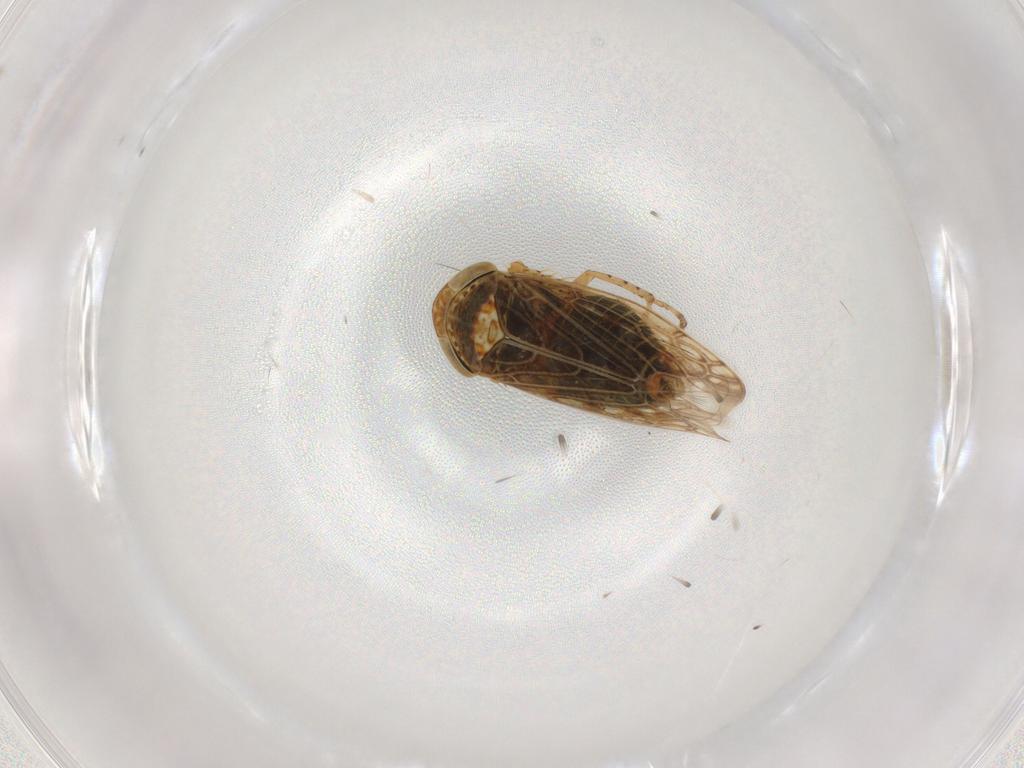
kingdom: Animalia
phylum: Arthropoda
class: Insecta
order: Hemiptera
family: Cicadellidae
